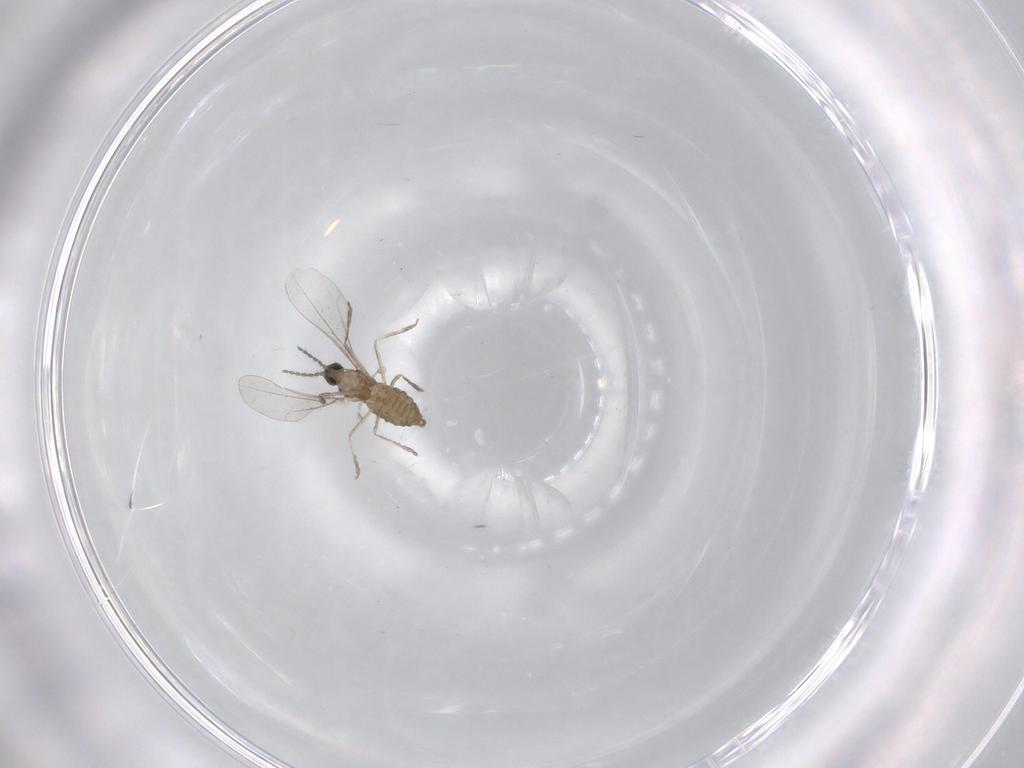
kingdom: Animalia
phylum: Arthropoda
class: Insecta
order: Diptera
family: Cecidomyiidae
